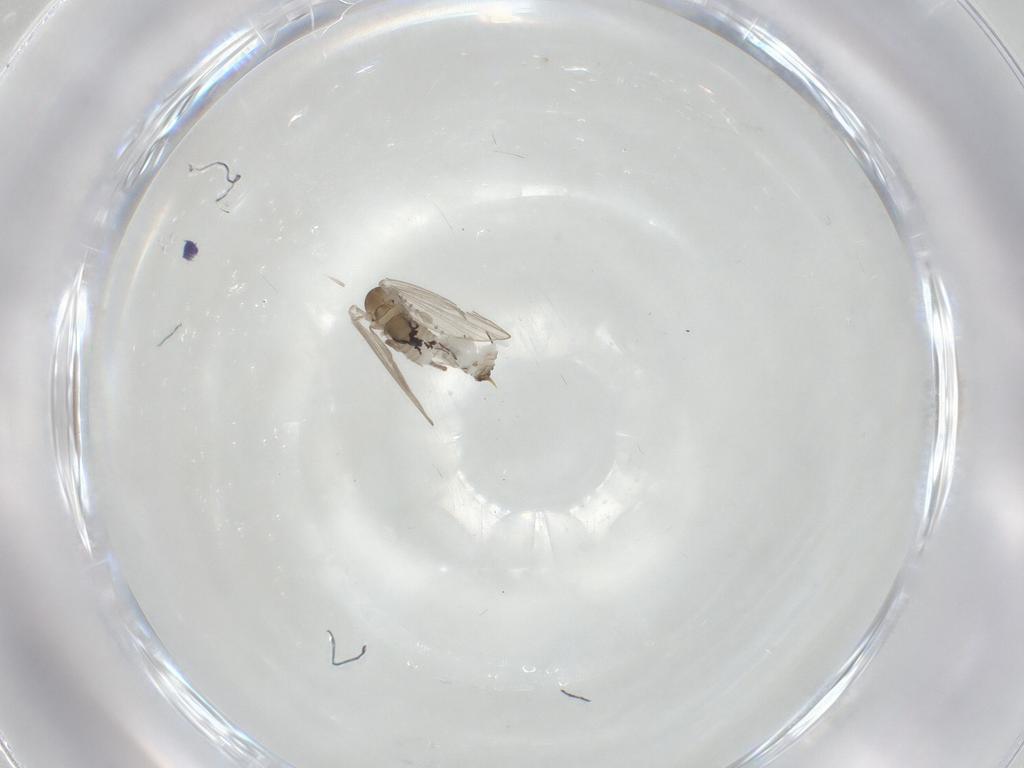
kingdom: Animalia
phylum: Arthropoda
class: Insecta
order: Diptera
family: Psychodidae
